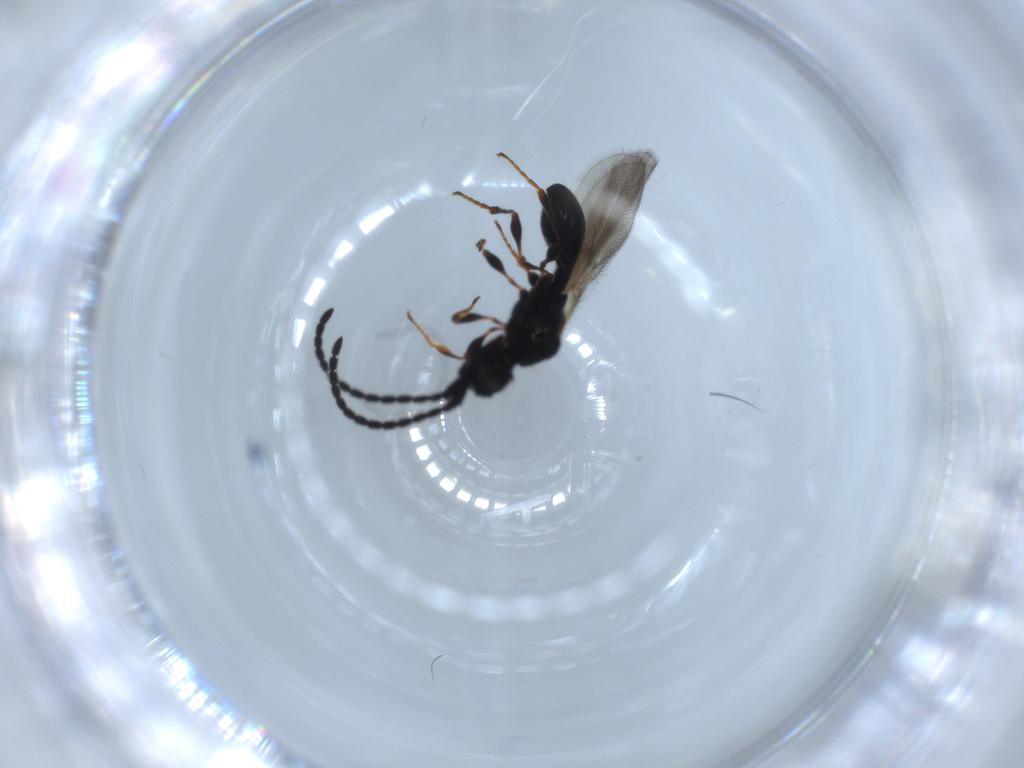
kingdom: Animalia
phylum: Arthropoda
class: Insecta
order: Hymenoptera
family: Diapriidae
